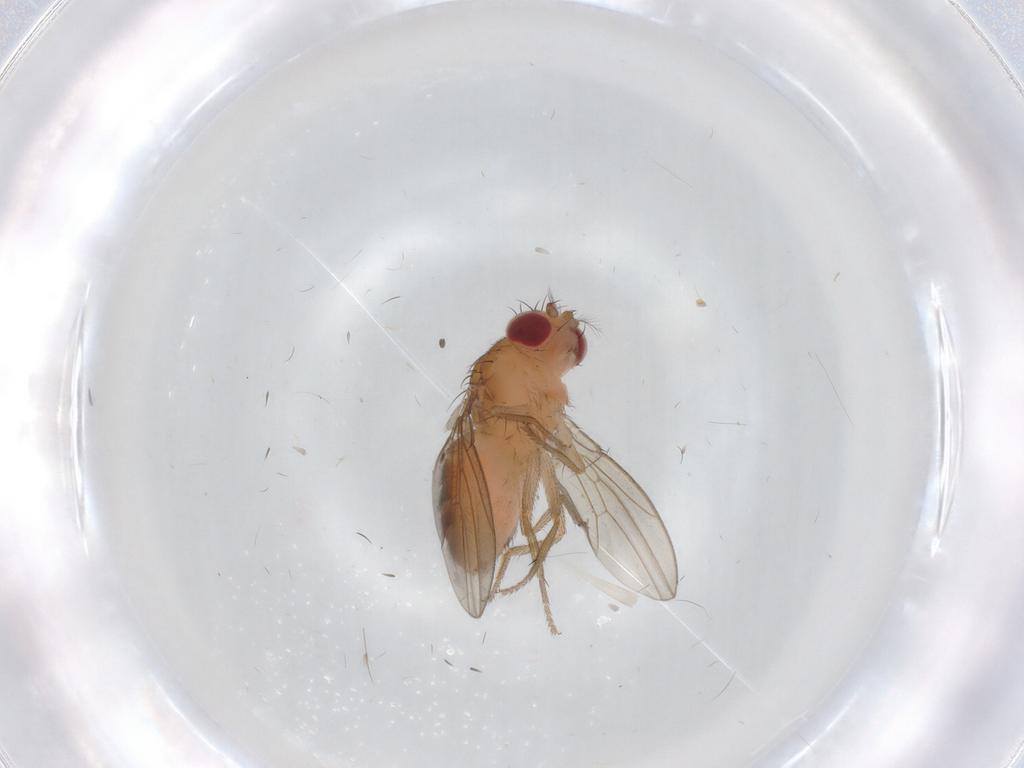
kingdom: Animalia
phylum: Arthropoda
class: Insecta
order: Diptera
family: Drosophilidae
